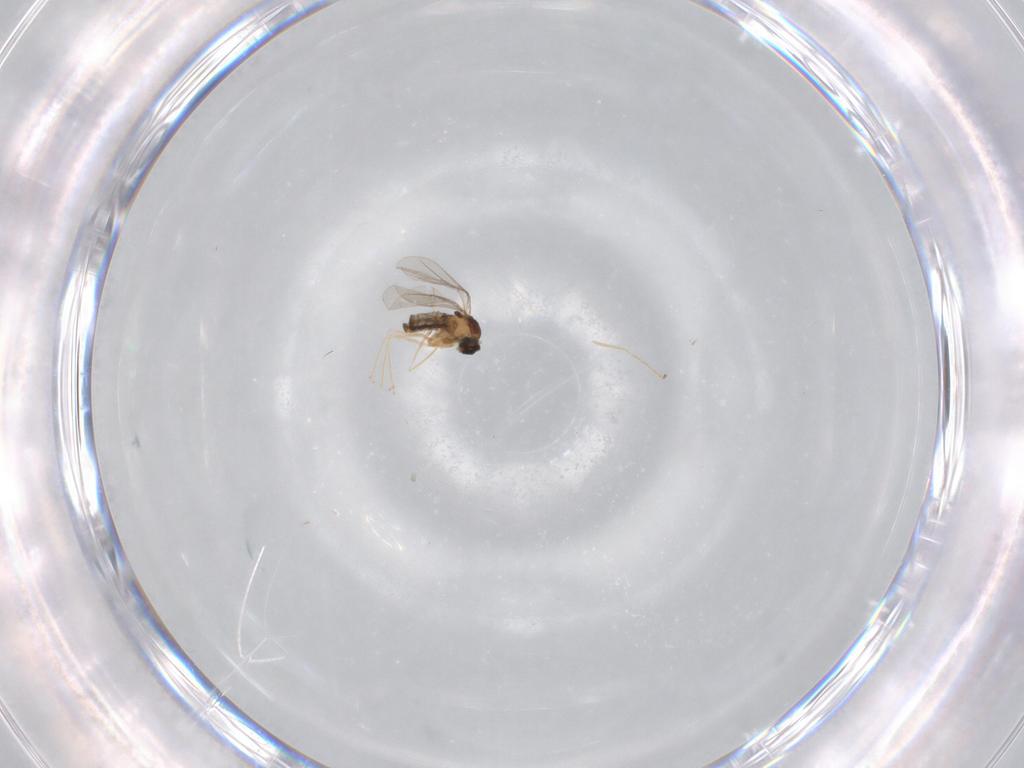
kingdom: Animalia
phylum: Arthropoda
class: Insecta
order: Diptera
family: Cecidomyiidae
